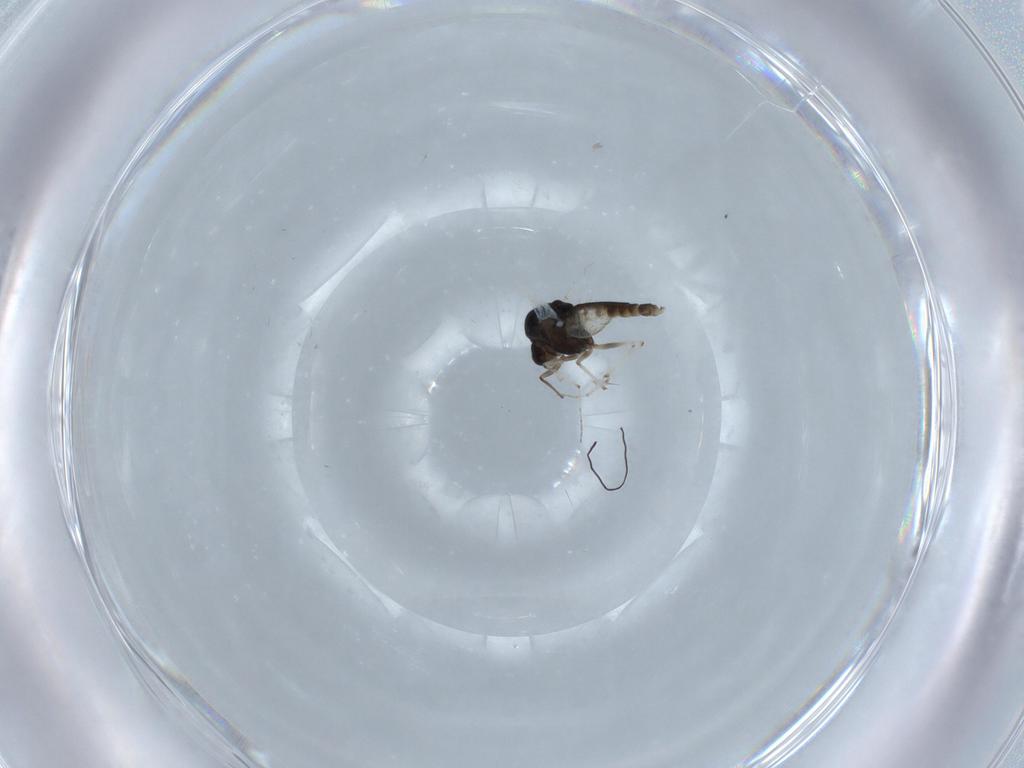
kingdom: Animalia
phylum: Arthropoda
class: Insecta
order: Diptera
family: Chironomidae
